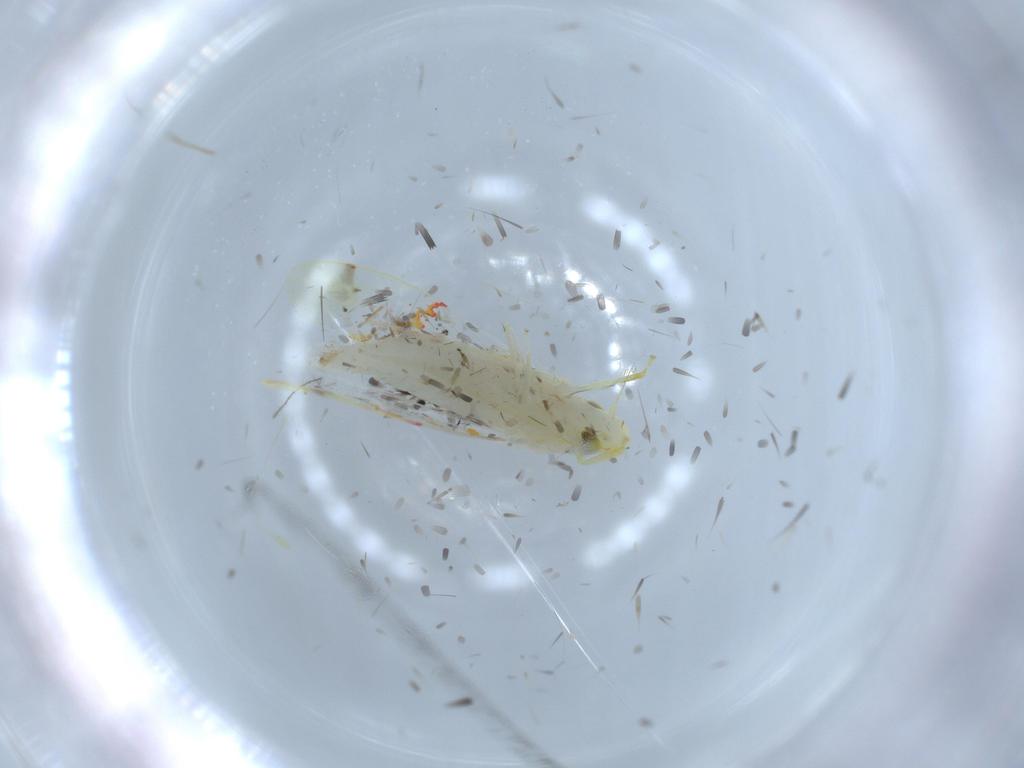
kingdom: Animalia
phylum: Arthropoda
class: Insecta
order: Hemiptera
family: Cicadellidae
